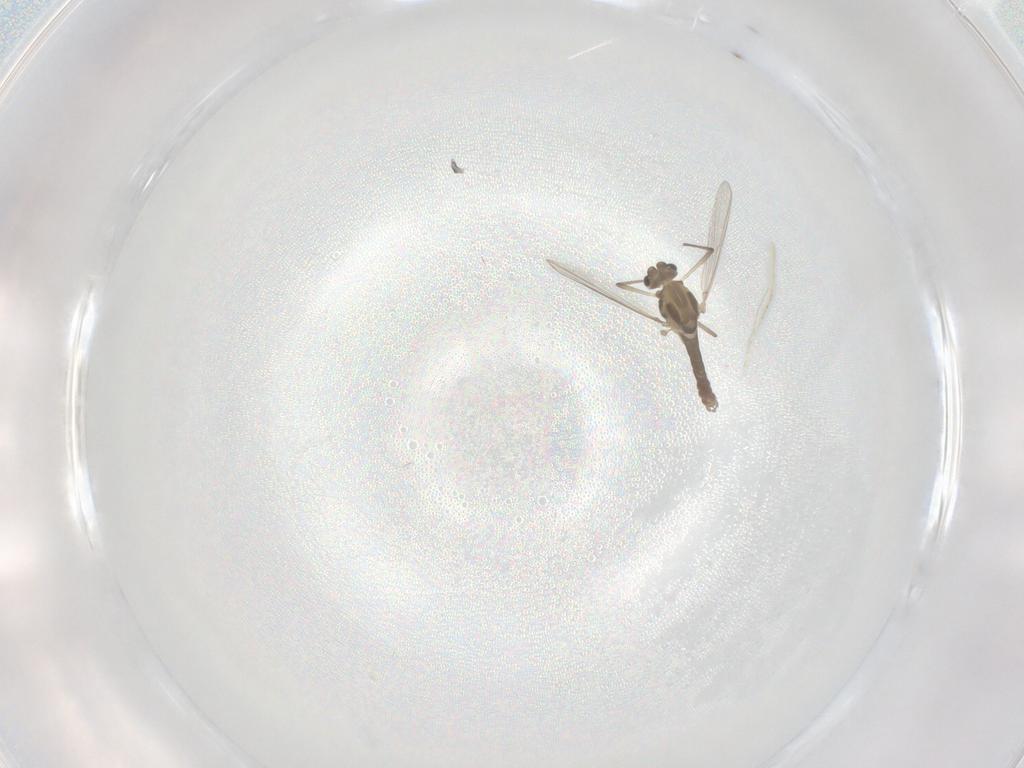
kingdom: Animalia
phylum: Arthropoda
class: Insecta
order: Diptera
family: Chironomidae
